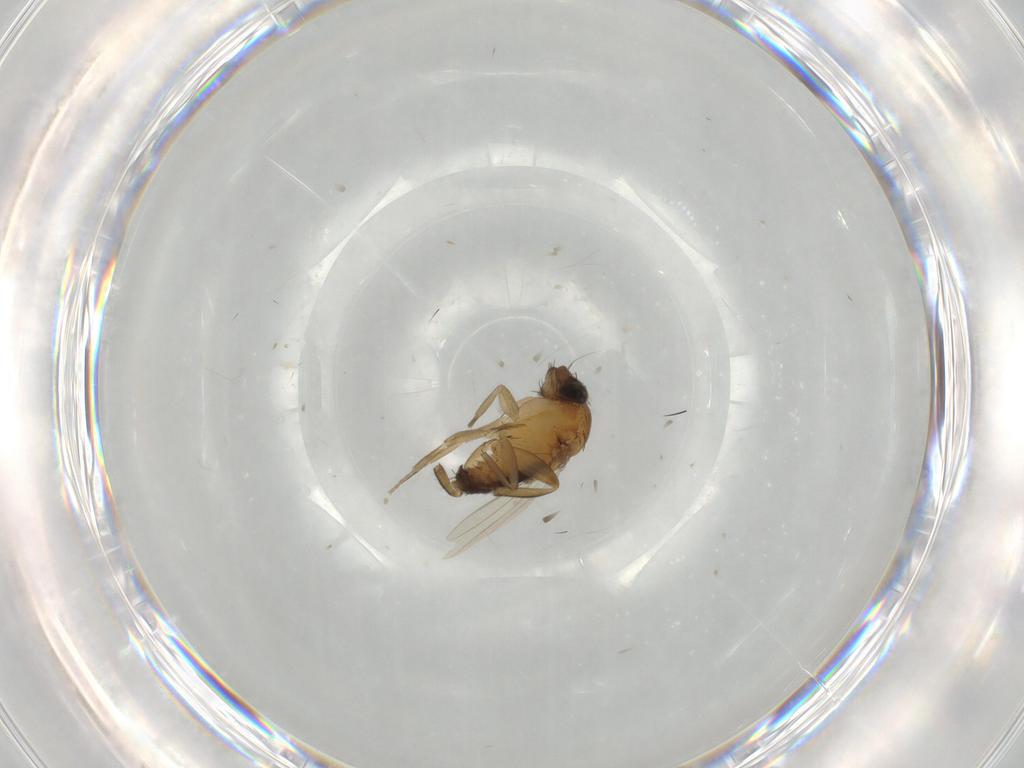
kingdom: Animalia
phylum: Arthropoda
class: Insecta
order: Diptera
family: Phoridae
